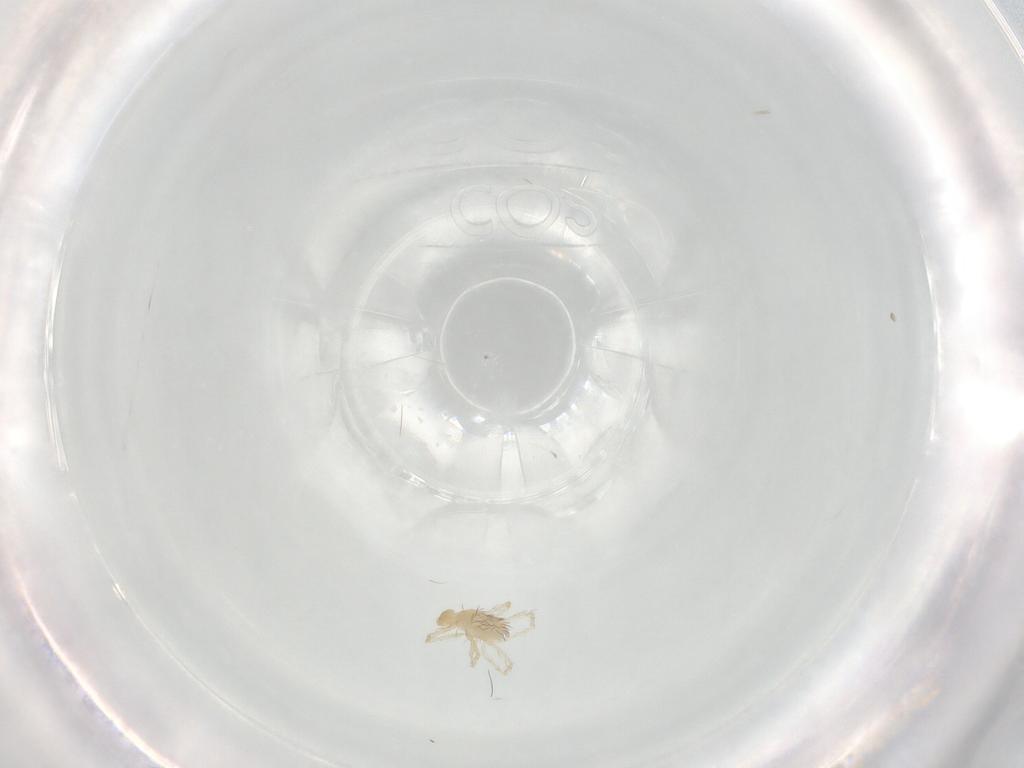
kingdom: Animalia
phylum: Arthropoda
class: Arachnida
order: Trombidiformes
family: Erythraeidae
